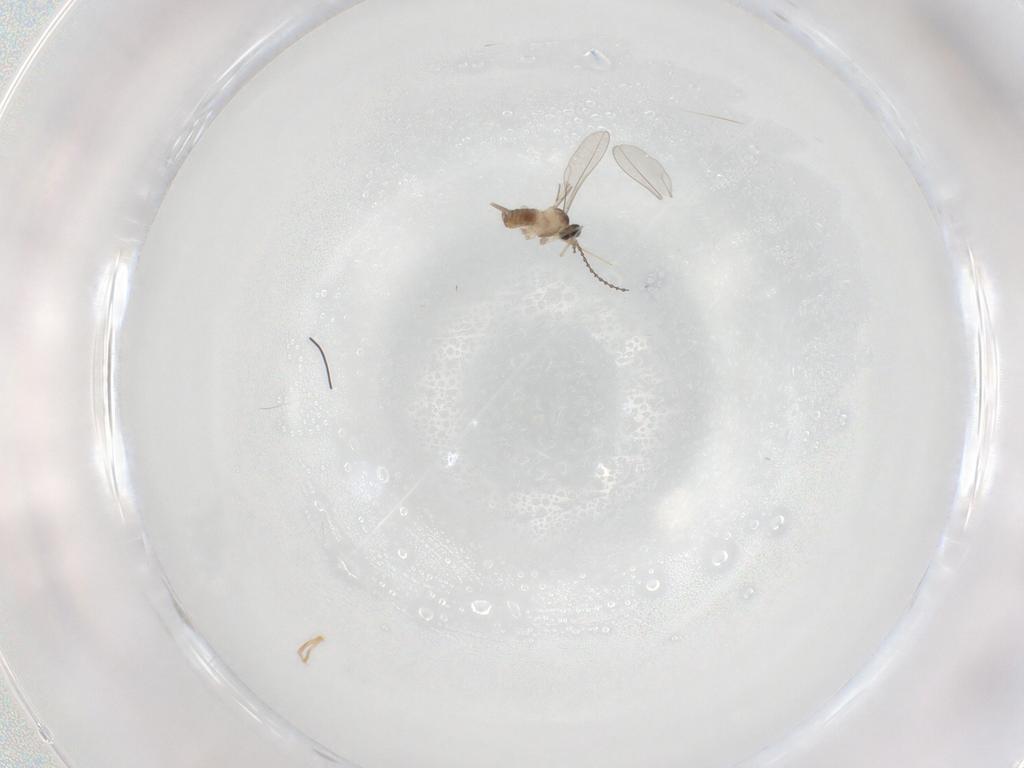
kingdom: Animalia
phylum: Arthropoda
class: Insecta
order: Diptera
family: Cecidomyiidae
